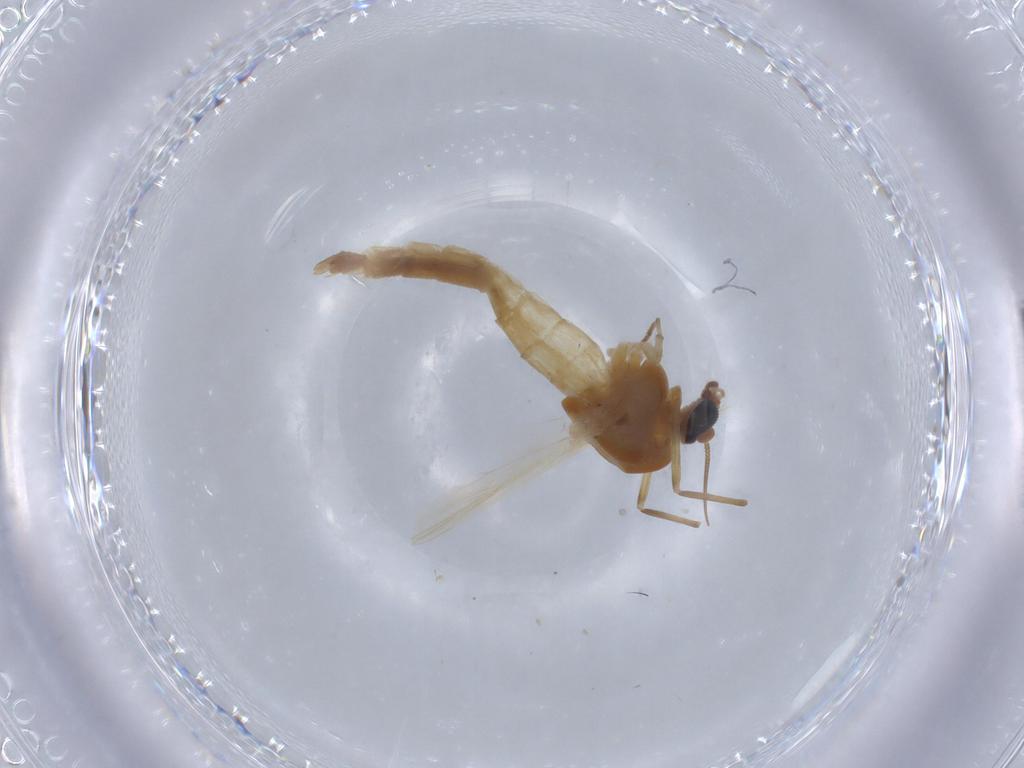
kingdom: Animalia
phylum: Arthropoda
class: Insecta
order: Diptera
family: Chironomidae
